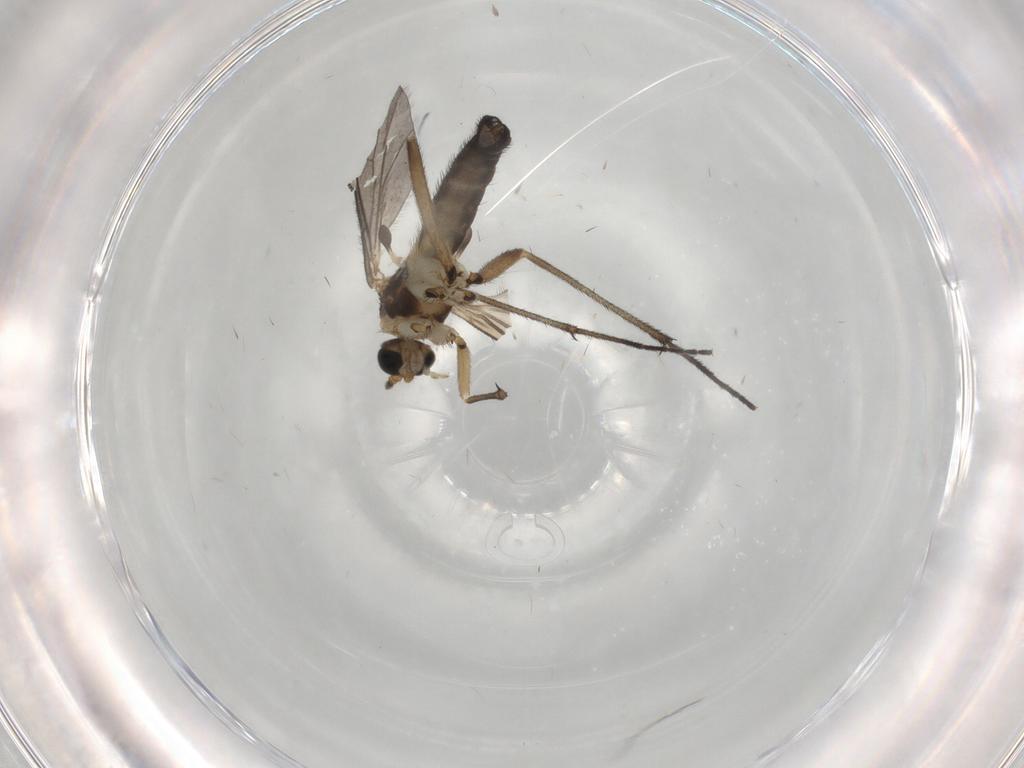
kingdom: Animalia
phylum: Arthropoda
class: Insecta
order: Diptera
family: Sciaridae
